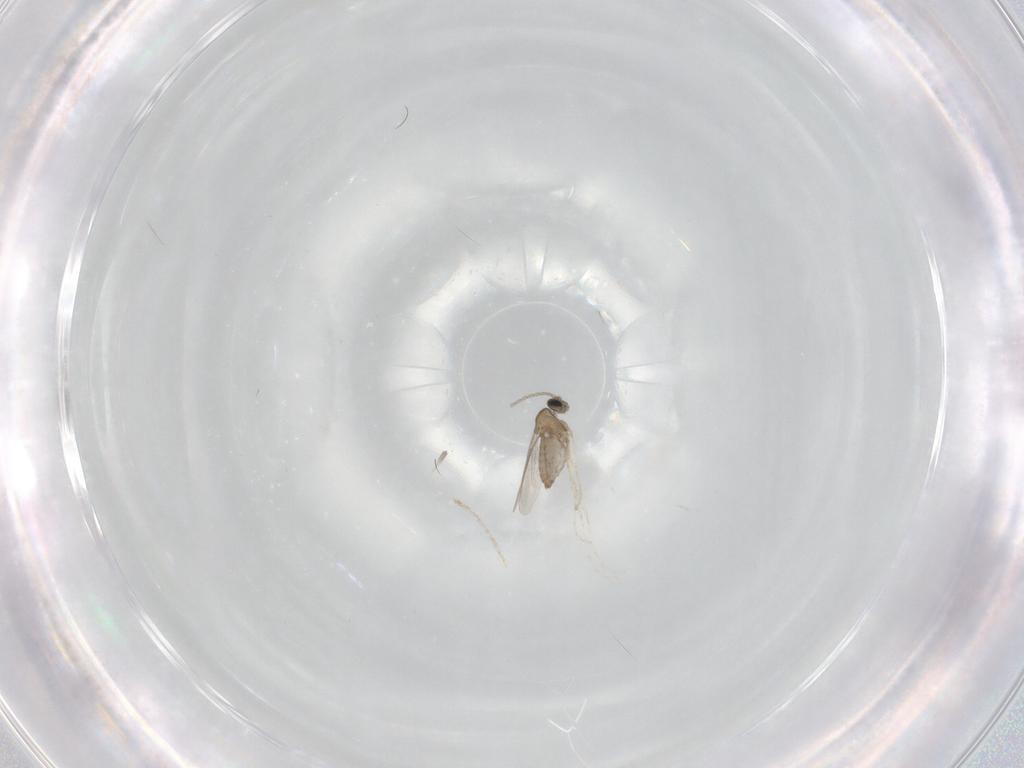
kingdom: Animalia
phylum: Arthropoda
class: Insecta
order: Diptera
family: Cecidomyiidae
